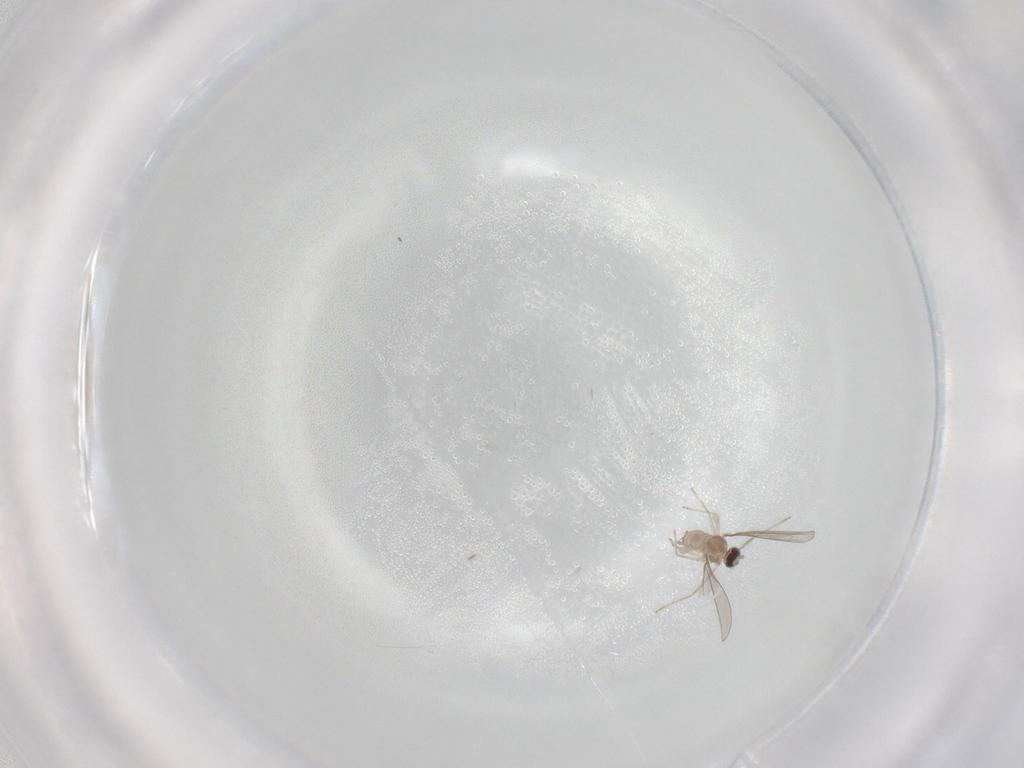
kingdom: Animalia
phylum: Arthropoda
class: Insecta
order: Diptera
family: Cecidomyiidae
